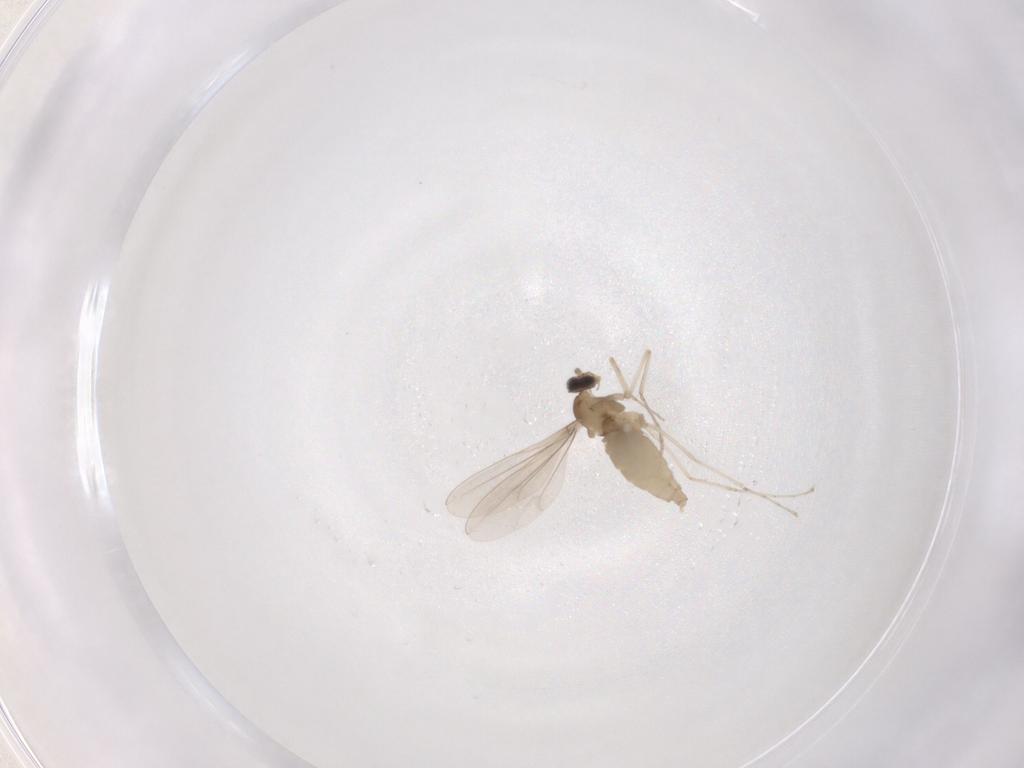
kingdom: Animalia
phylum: Arthropoda
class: Insecta
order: Diptera
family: Cecidomyiidae
